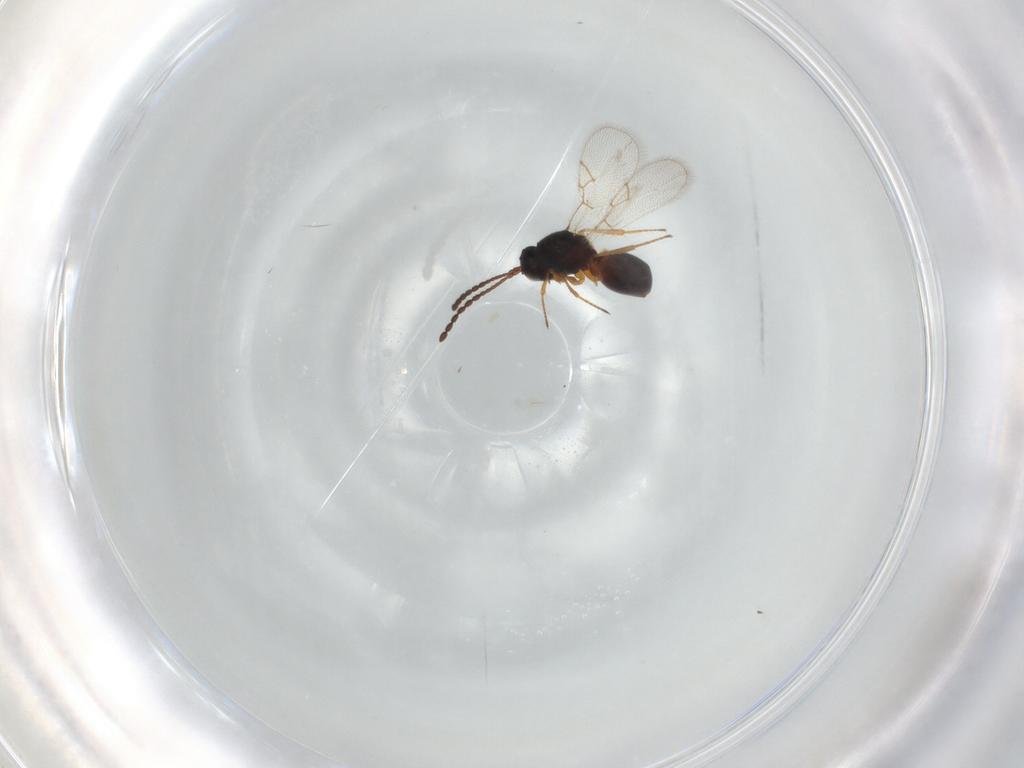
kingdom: Animalia
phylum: Arthropoda
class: Insecta
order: Hymenoptera
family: Figitidae
